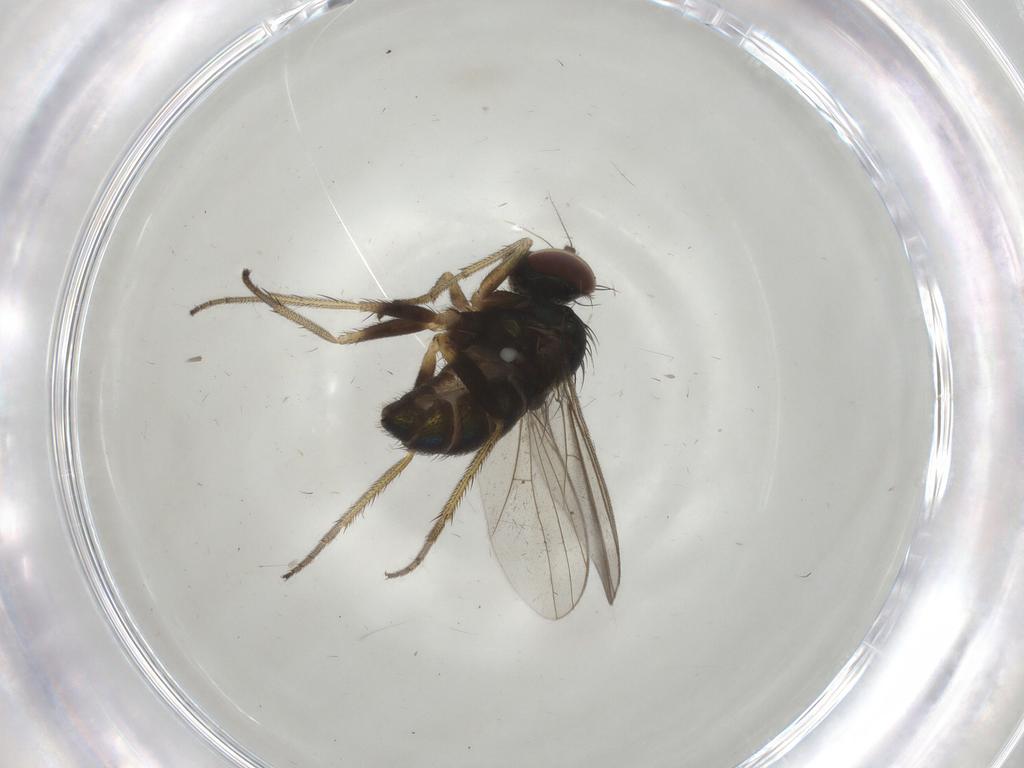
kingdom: Animalia
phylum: Arthropoda
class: Insecta
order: Diptera
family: Dolichopodidae
